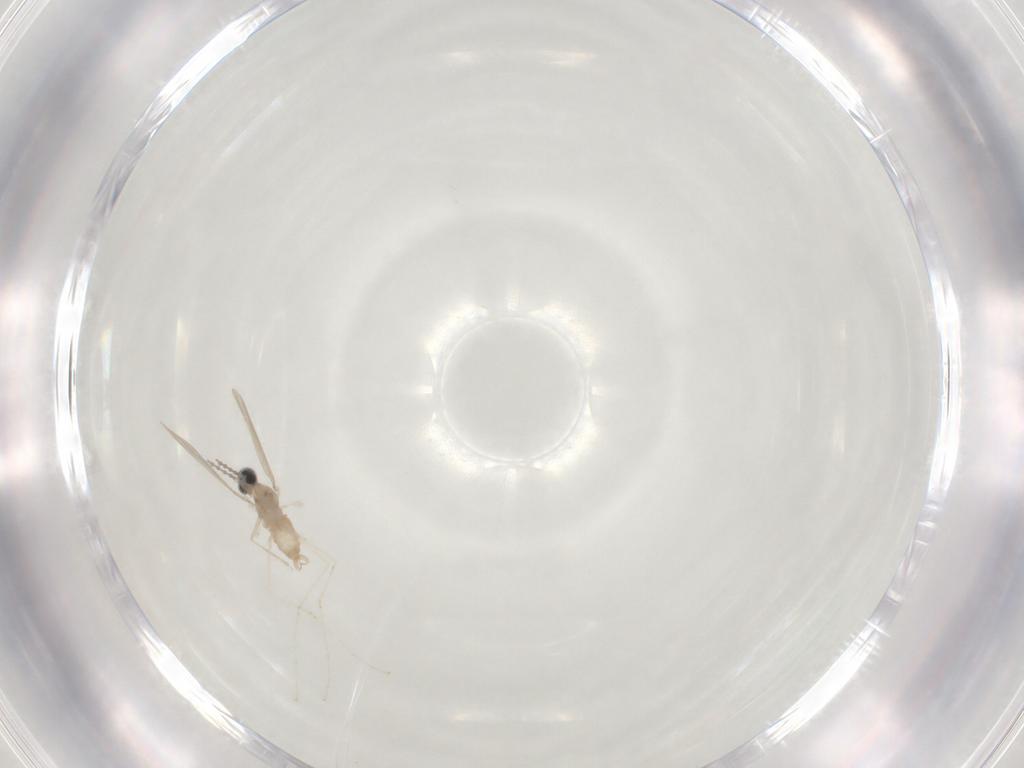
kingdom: Animalia
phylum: Arthropoda
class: Insecta
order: Diptera
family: Cecidomyiidae
